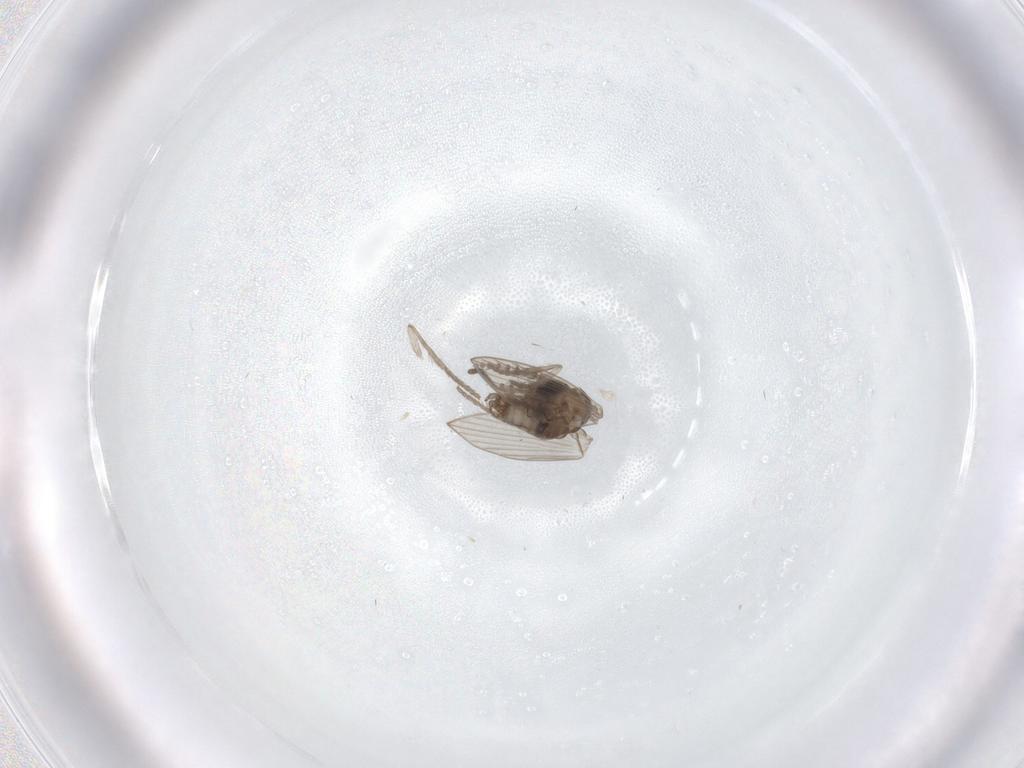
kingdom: Animalia
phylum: Arthropoda
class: Insecta
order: Diptera
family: Psychodidae
